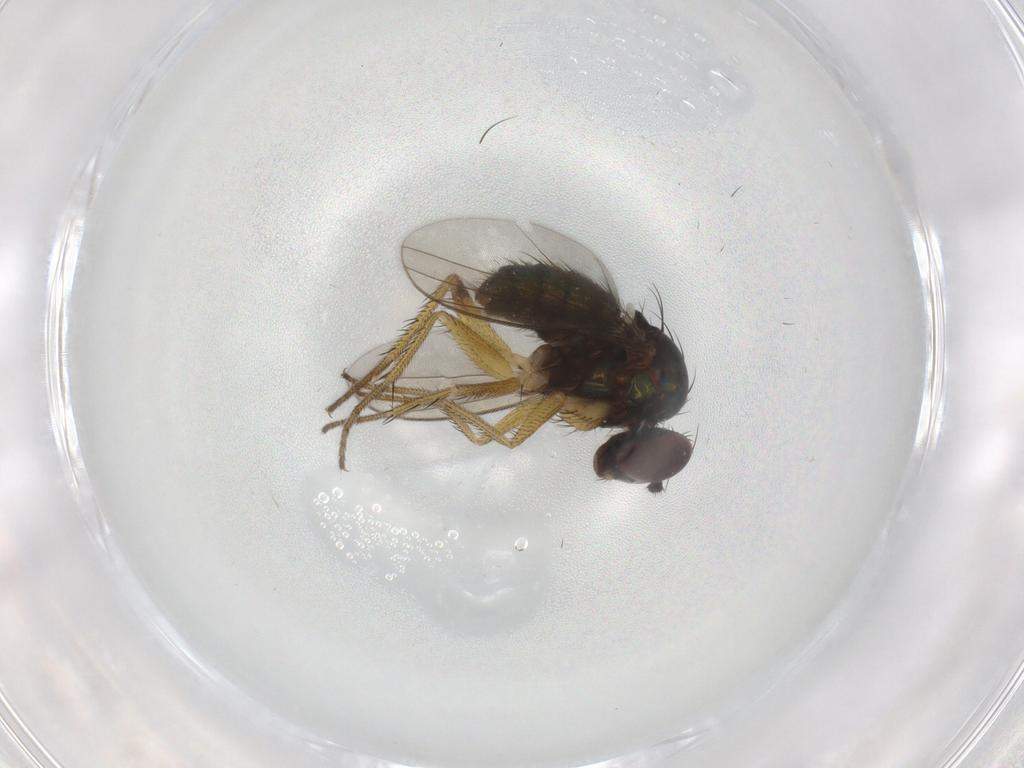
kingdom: Animalia
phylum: Arthropoda
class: Insecta
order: Diptera
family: Dolichopodidae
